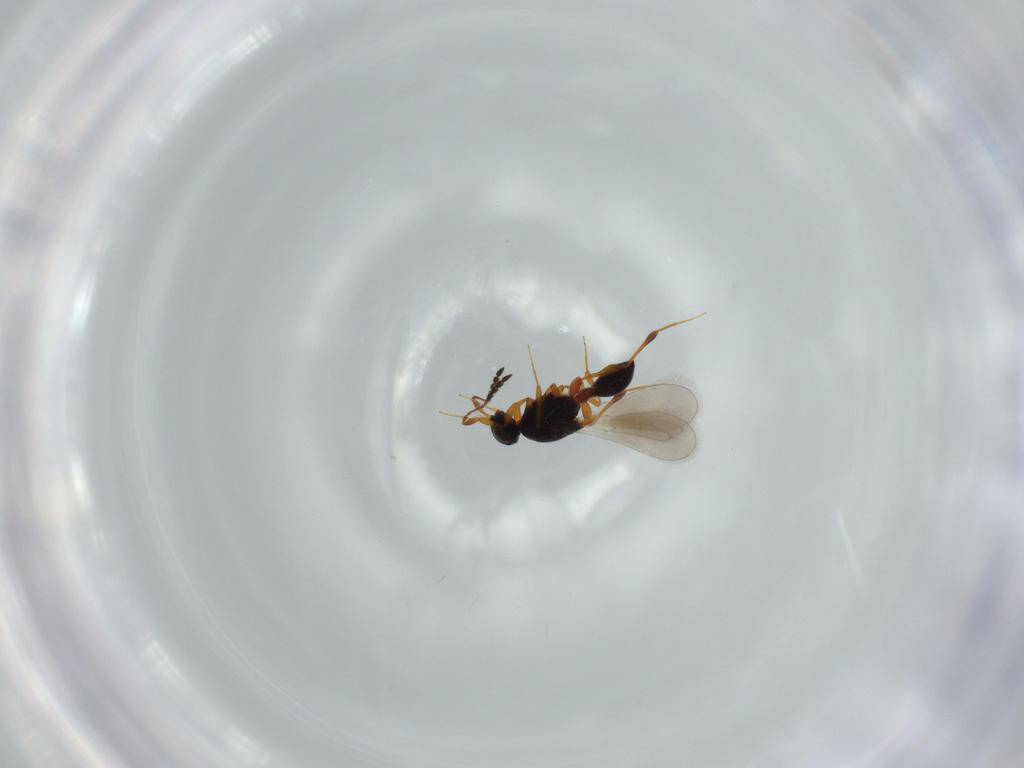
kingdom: Animalia
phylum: Arthropoda
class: Insecta
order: Hymenoptera
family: Platygastridae
